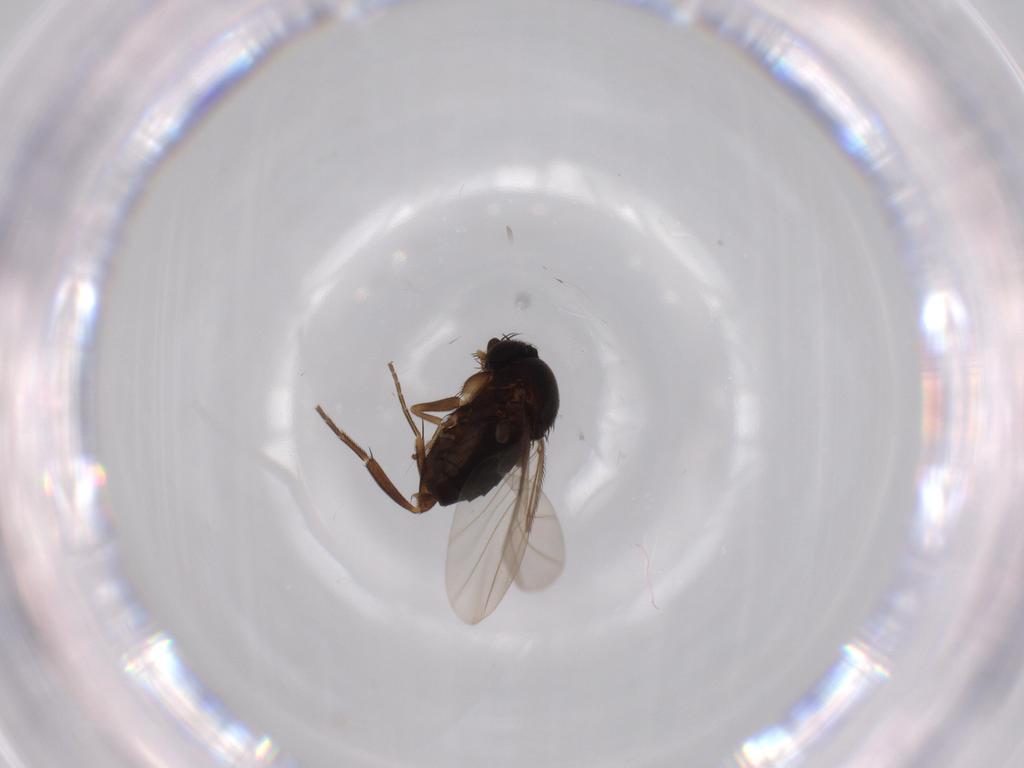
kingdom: Animalia
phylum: Arthropoda
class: Insecta
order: Diptera
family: Phoridae
